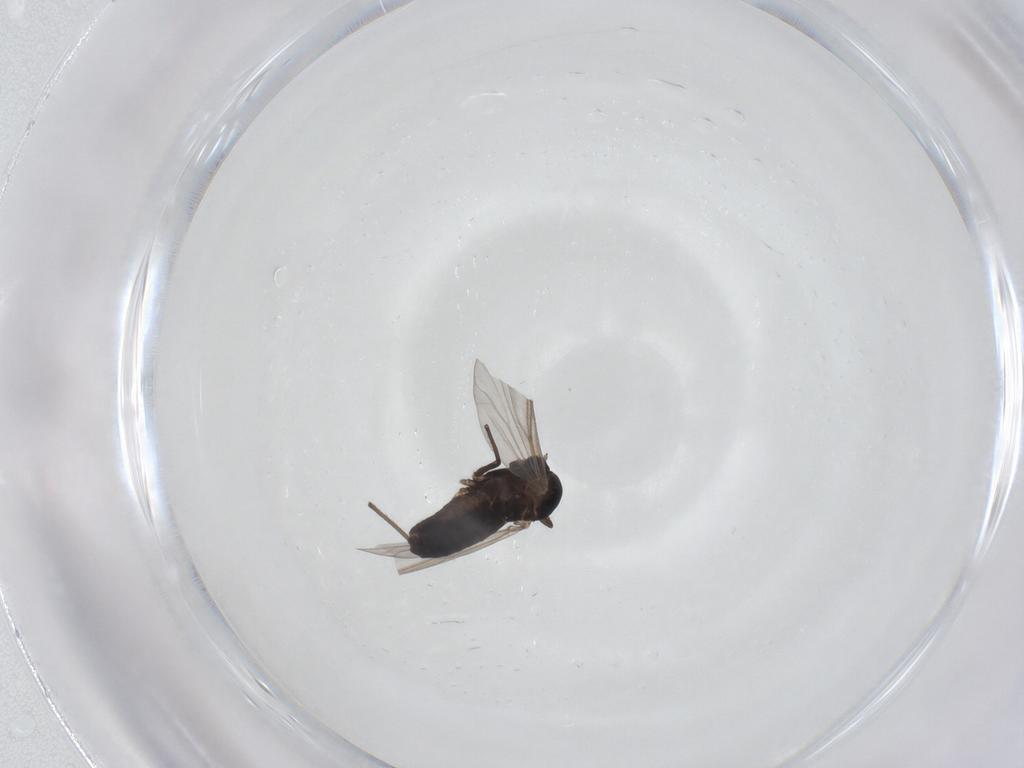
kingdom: Animalia
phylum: Arthropoda
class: Insecta
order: Diptera
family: Chironomidae
